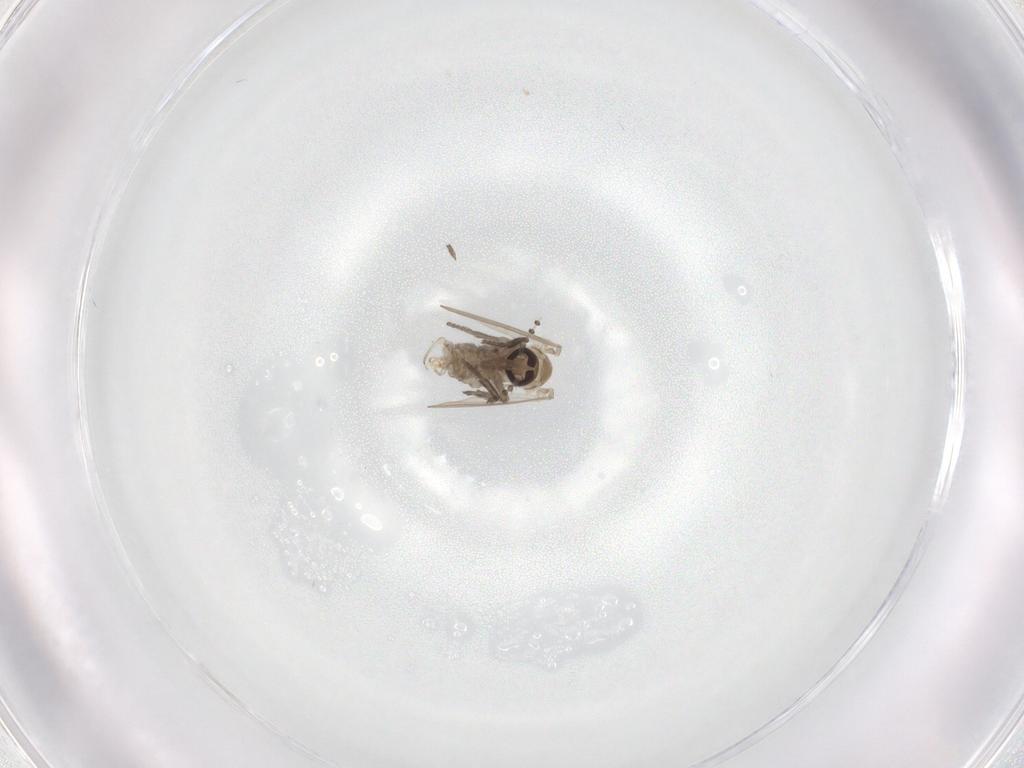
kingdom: Animalia
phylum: Arthropoda
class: Insecta
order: Diptera
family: Psychodidae
